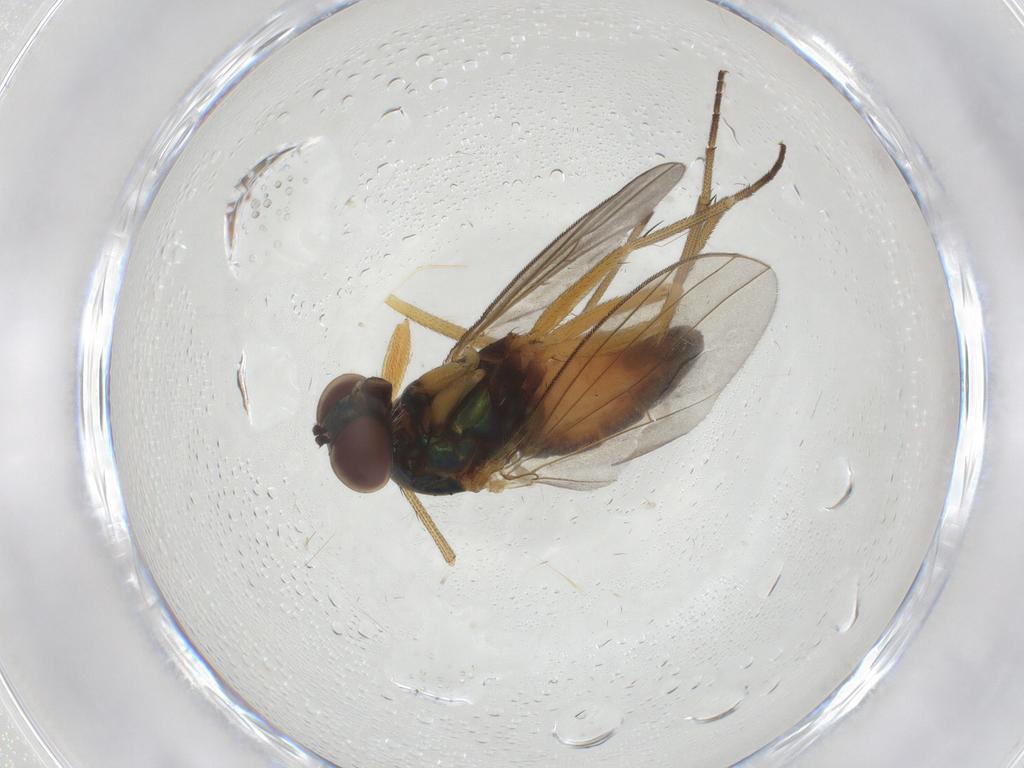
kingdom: Animalia
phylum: Arthropoda
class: Insecta
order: Diptera
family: Dolichopodidae
